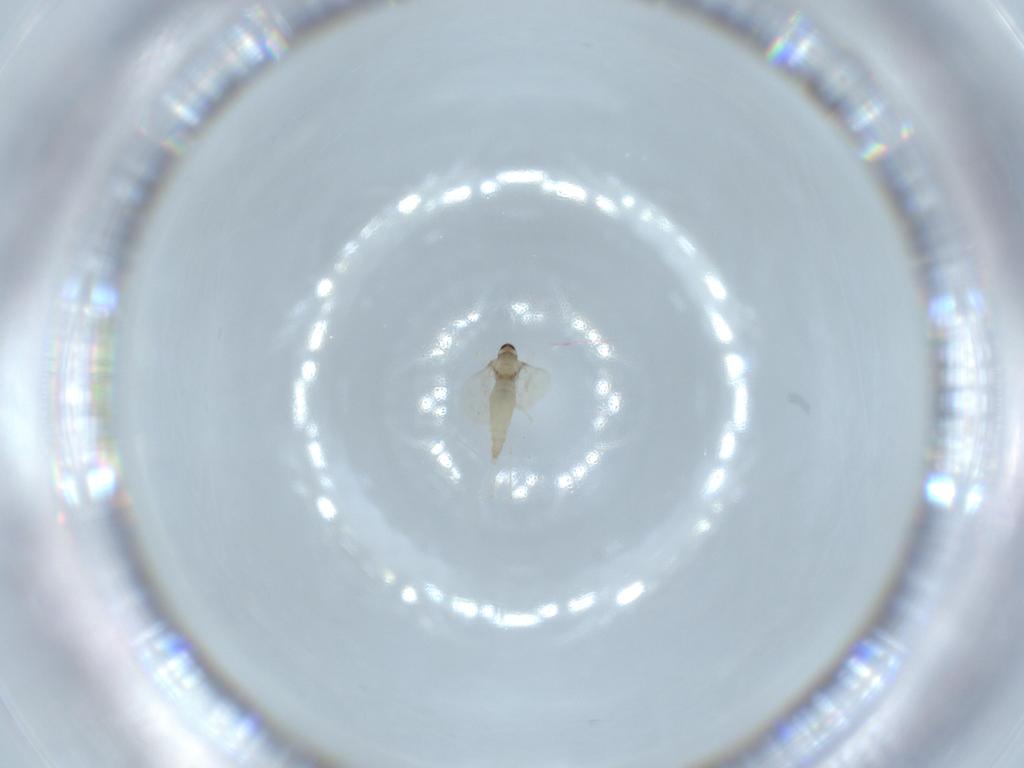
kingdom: Animalia
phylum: Arthropoda
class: Insecta
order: Diptera
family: Cecidomyiidae
